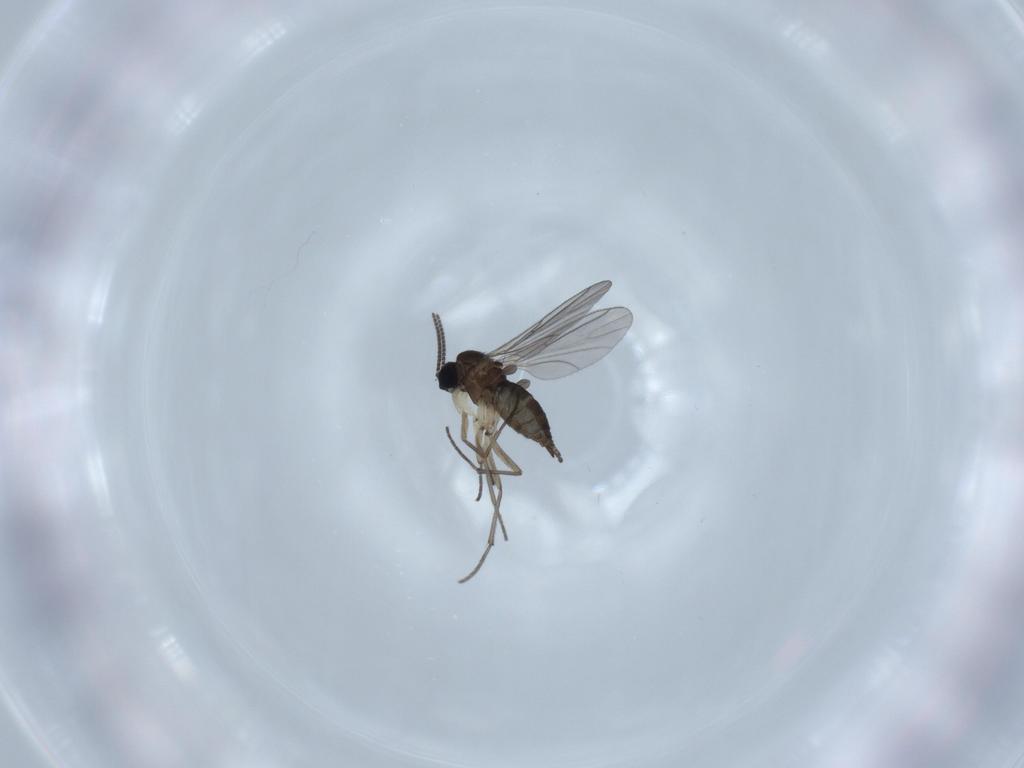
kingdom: Animalia
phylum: Arthropoda
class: Insecta
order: Diptera
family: Sciaridae
